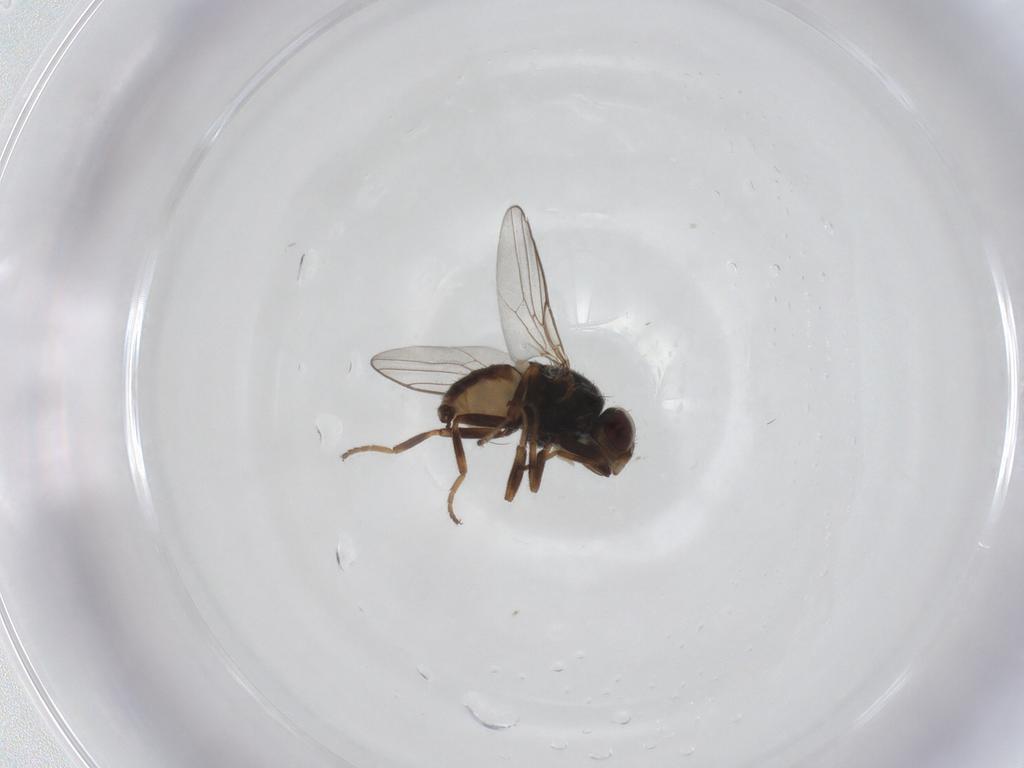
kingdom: Animalia
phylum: Arthropoda
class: Insecta
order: Diptera
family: Chloropidae
